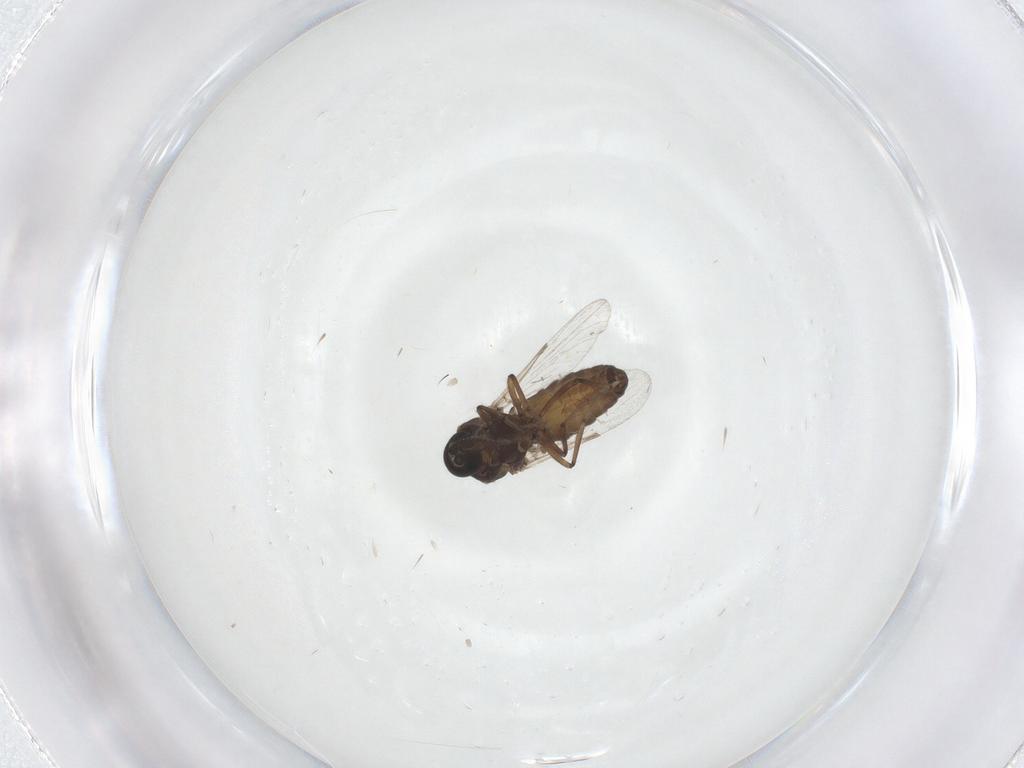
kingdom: Animalia
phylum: Arthropoda
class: Insecta
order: Diptera
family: Ceratopogonidae
